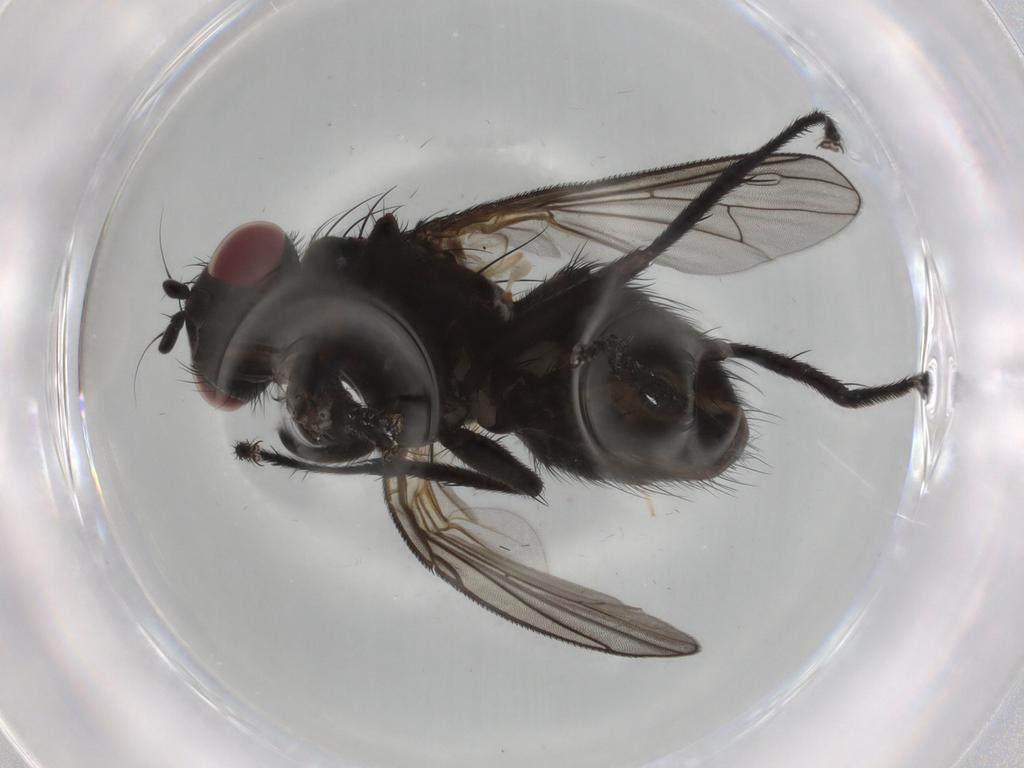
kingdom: Animalia
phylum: Arthropoda
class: Insecta
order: Diptera
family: Muscidae
